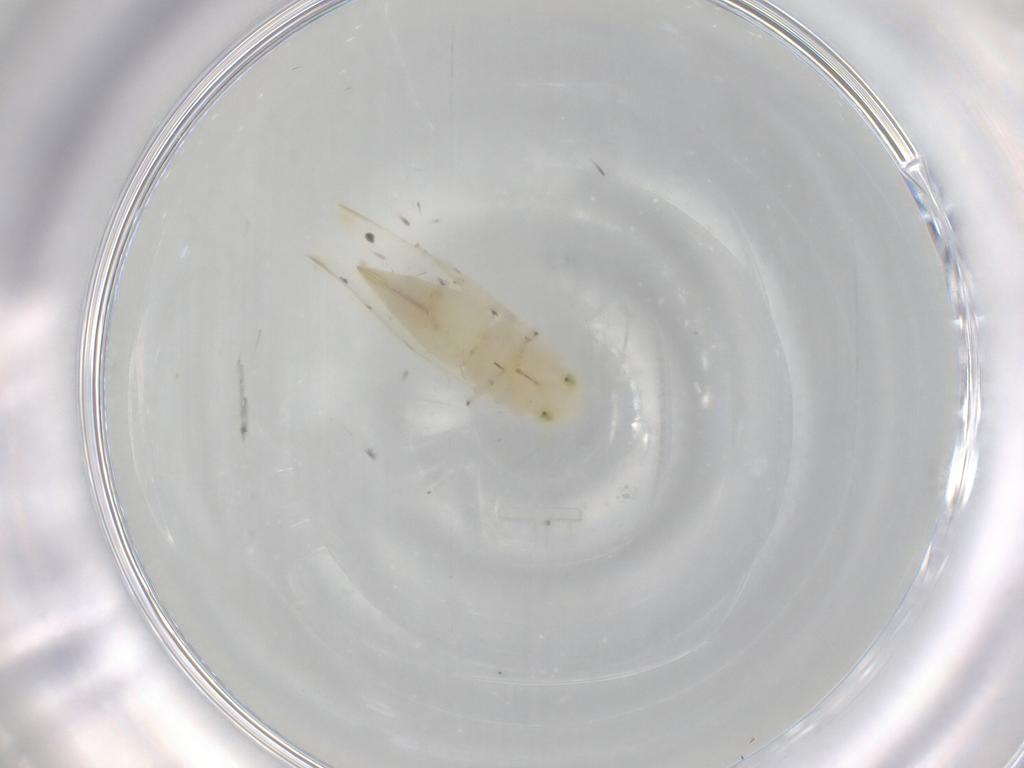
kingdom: Animalia
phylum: Arthropoda
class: Insecta
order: Hemiptera
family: Cicadellidae
